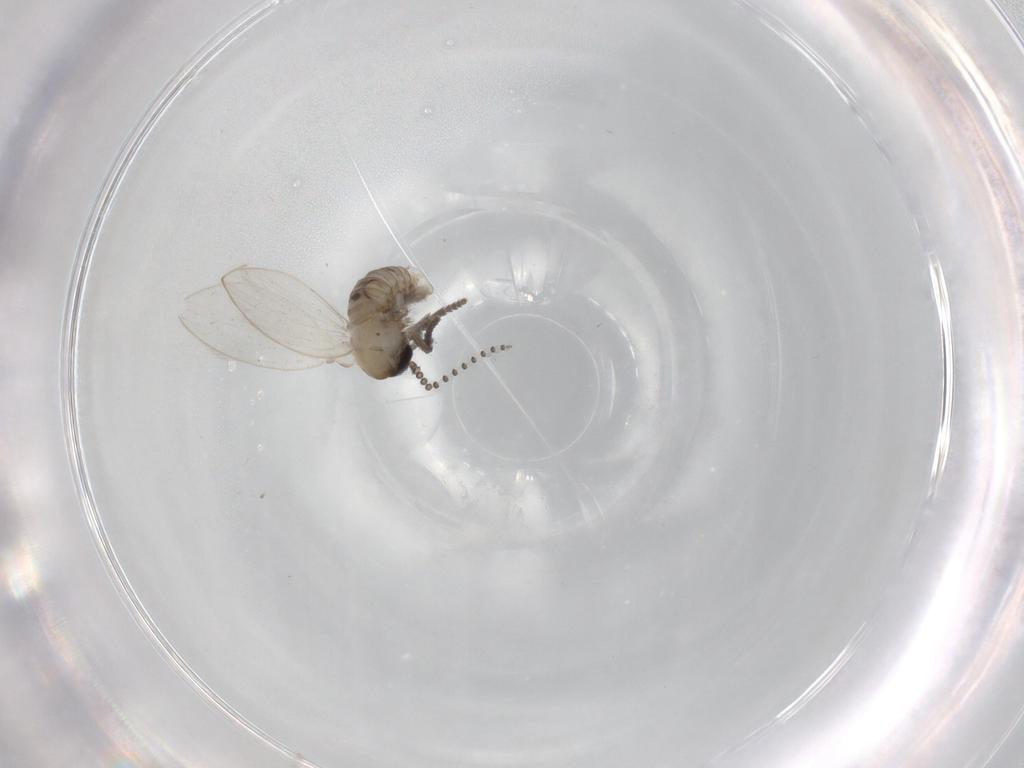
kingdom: Animalia
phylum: Arthropoda
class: Insecta
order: Diptera
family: Psychodidae
